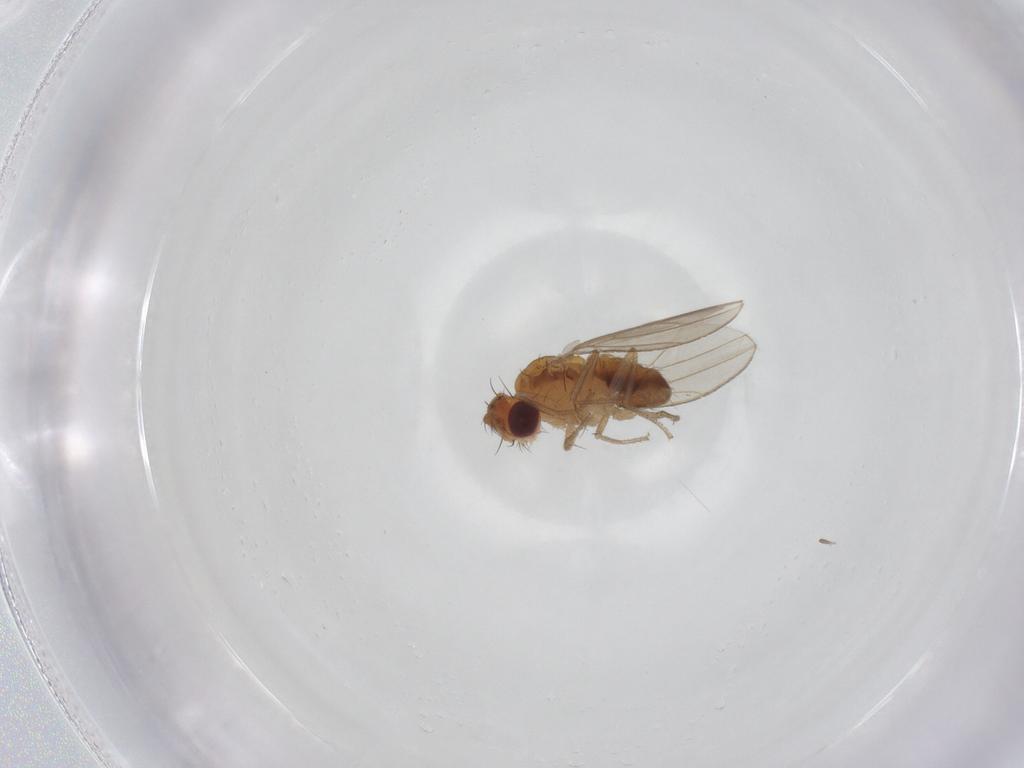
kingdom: Animalia
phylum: Arthropoda
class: Insecta
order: Diptera
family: Drosophilidae
